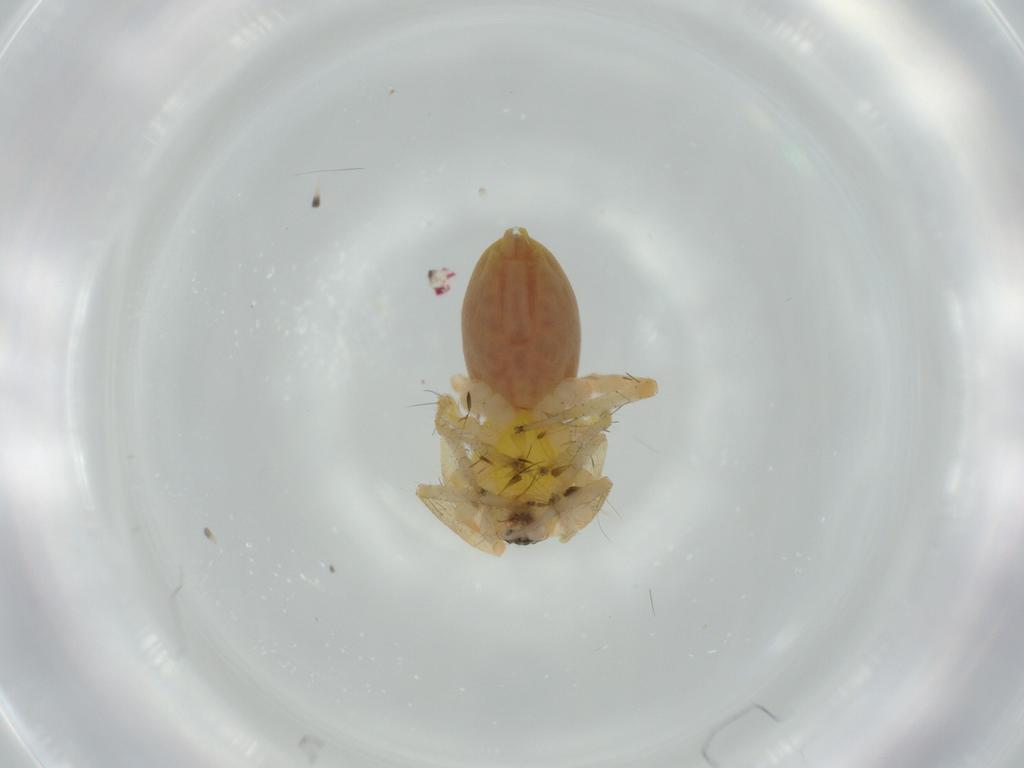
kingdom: Animalia
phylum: Arthropoda
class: Arachnida
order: Araneae
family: Anyphaenidae
